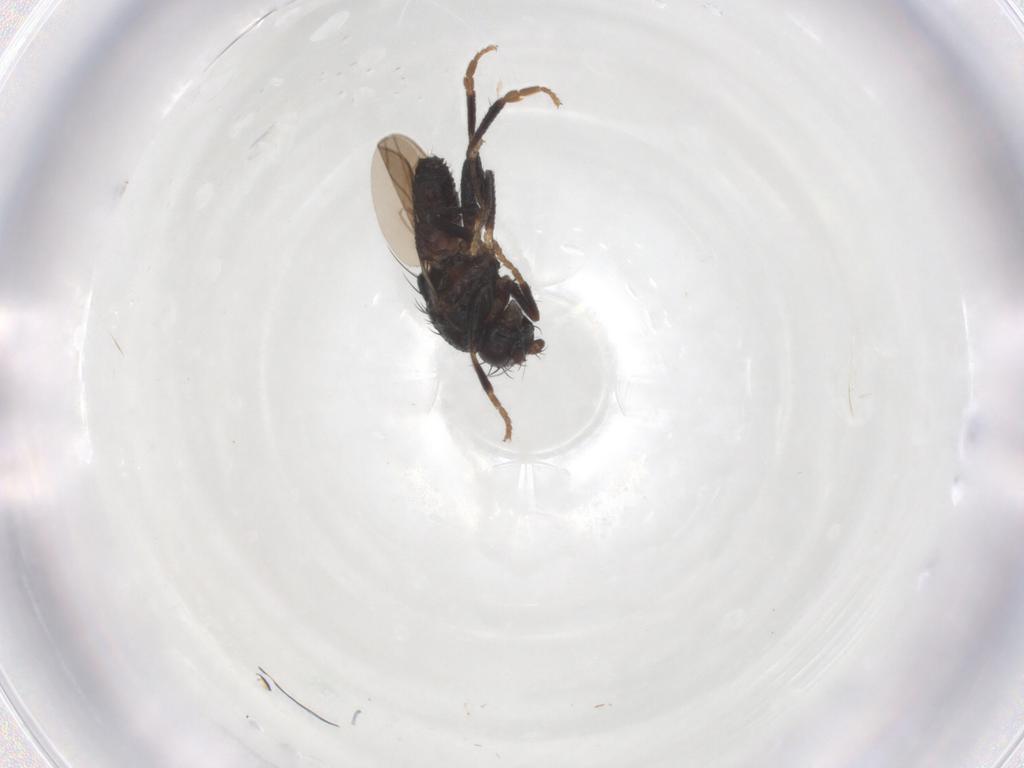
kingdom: Animalia
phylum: Arthropoda
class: Insecta
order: Diptera
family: Sphaeroceridae
